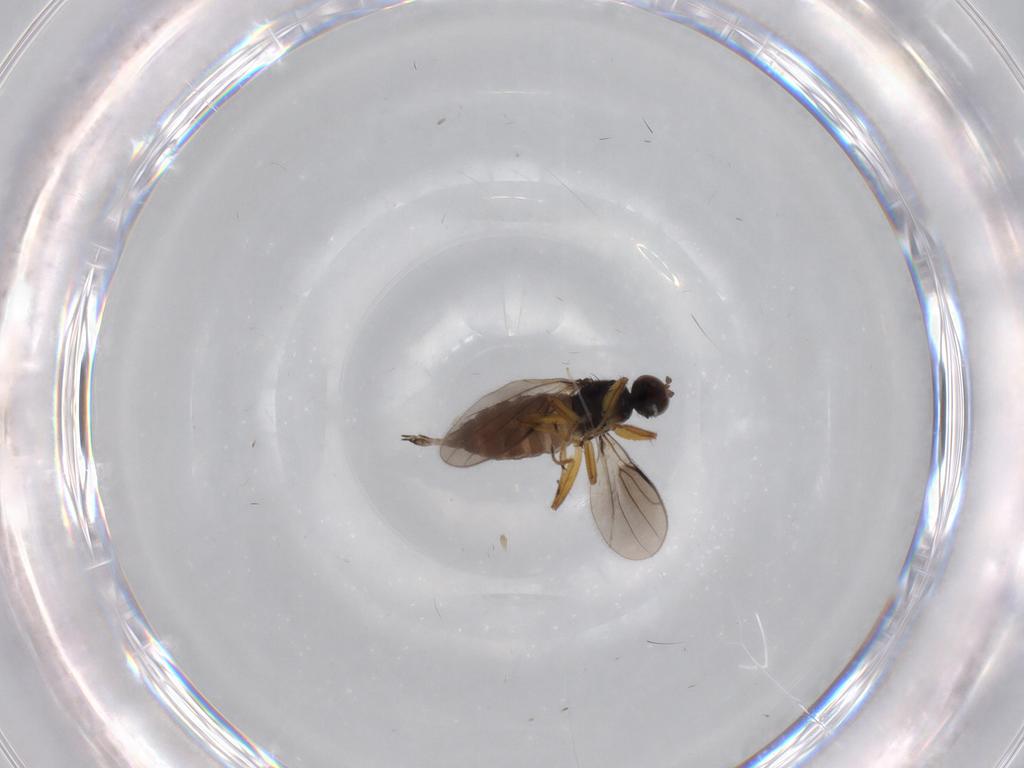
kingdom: Animalia
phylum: Arthropoda
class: Insecta
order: Diptera
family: Hybotidae
